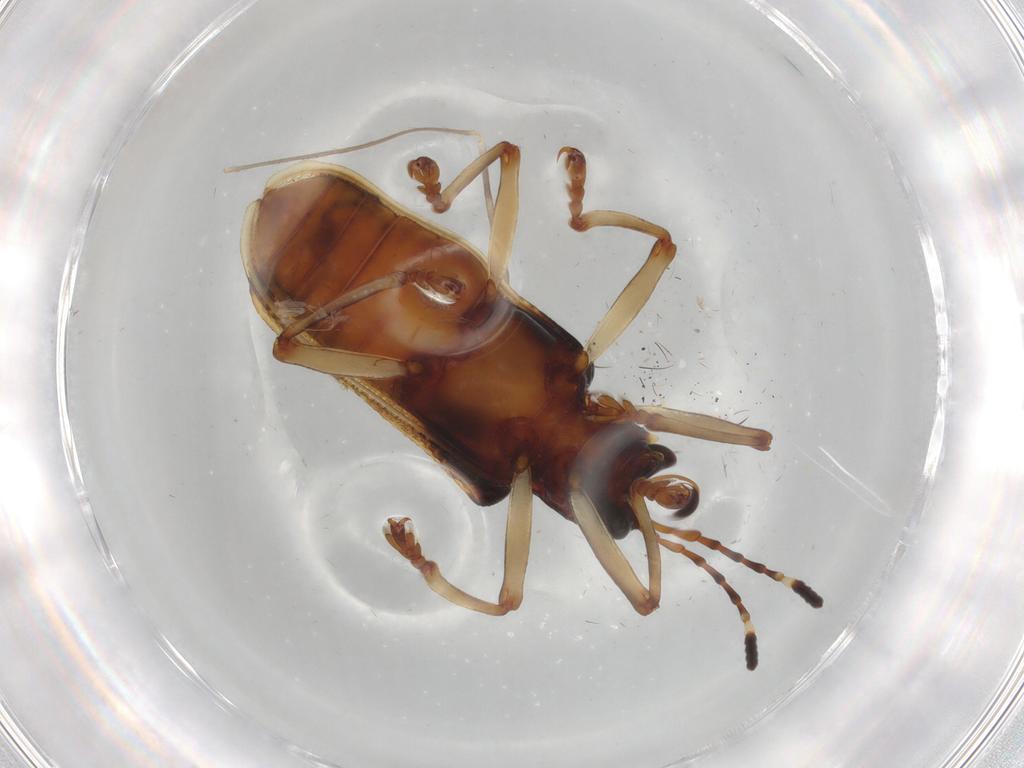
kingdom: Animalia
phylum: Arthropoda
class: Insecta
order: Coleoptera
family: Chrysomelidae
